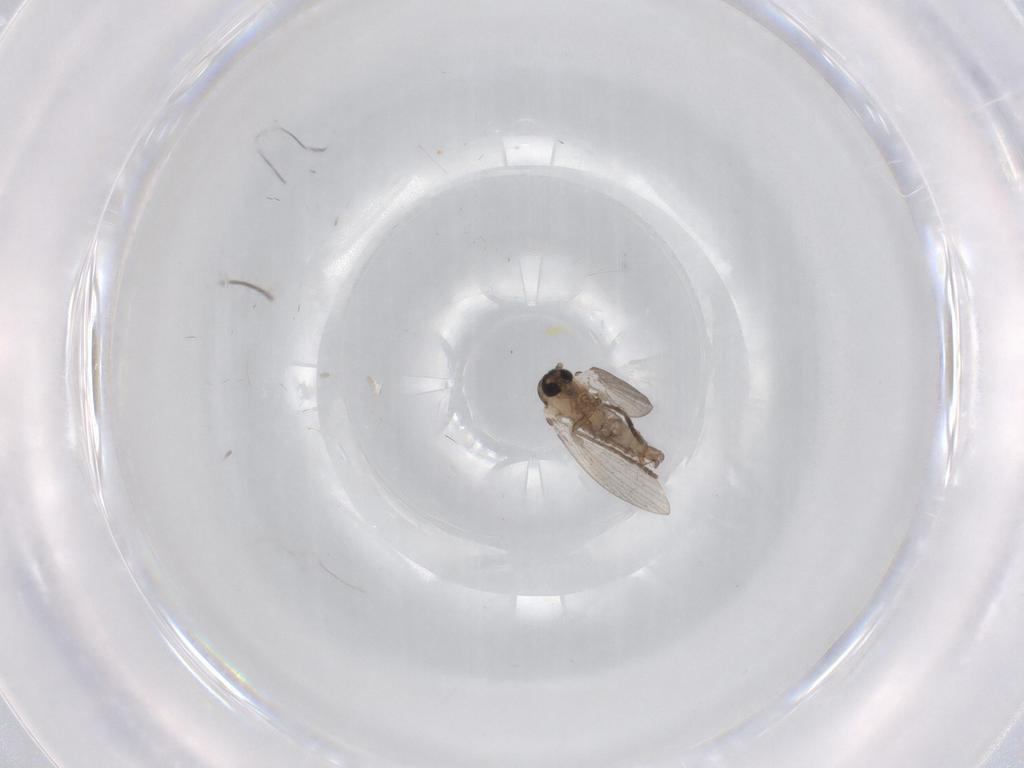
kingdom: Animalia
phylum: Arthropoda
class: Insecta
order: Diptera
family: Psychodidae
